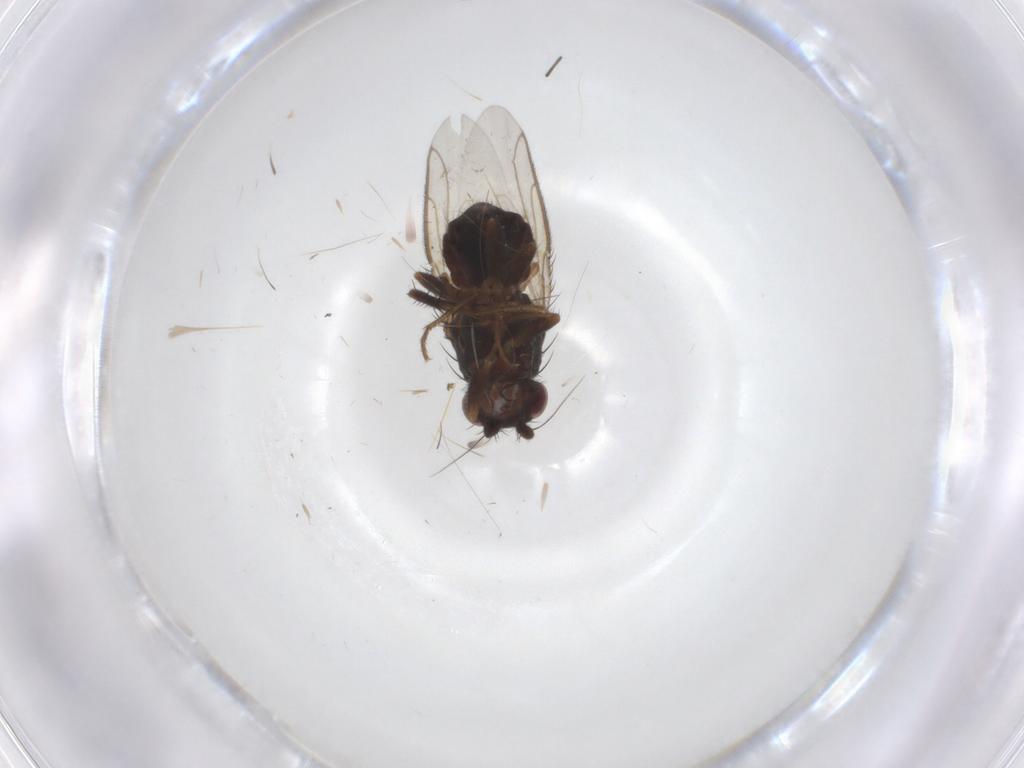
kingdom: Animalia
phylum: Arthropoda
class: Insecta
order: Diptera
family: Sphaeroceridae
